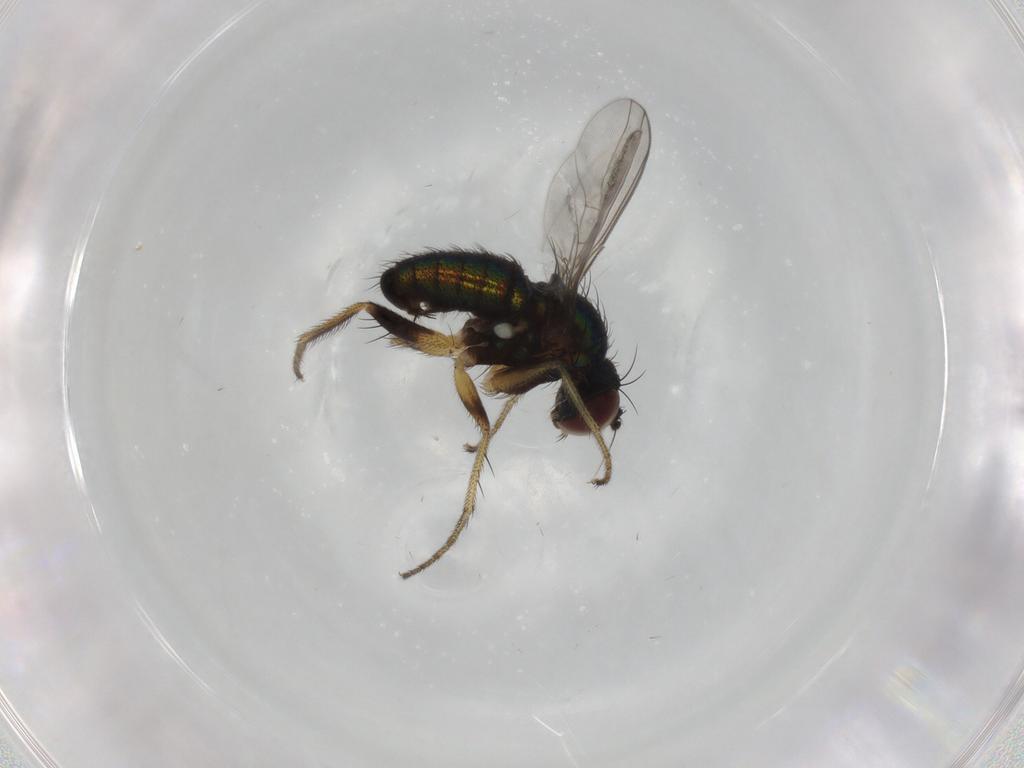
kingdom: Animalia
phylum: Arthropoda
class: Insecta
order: Diptera
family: Dolichopodidae
